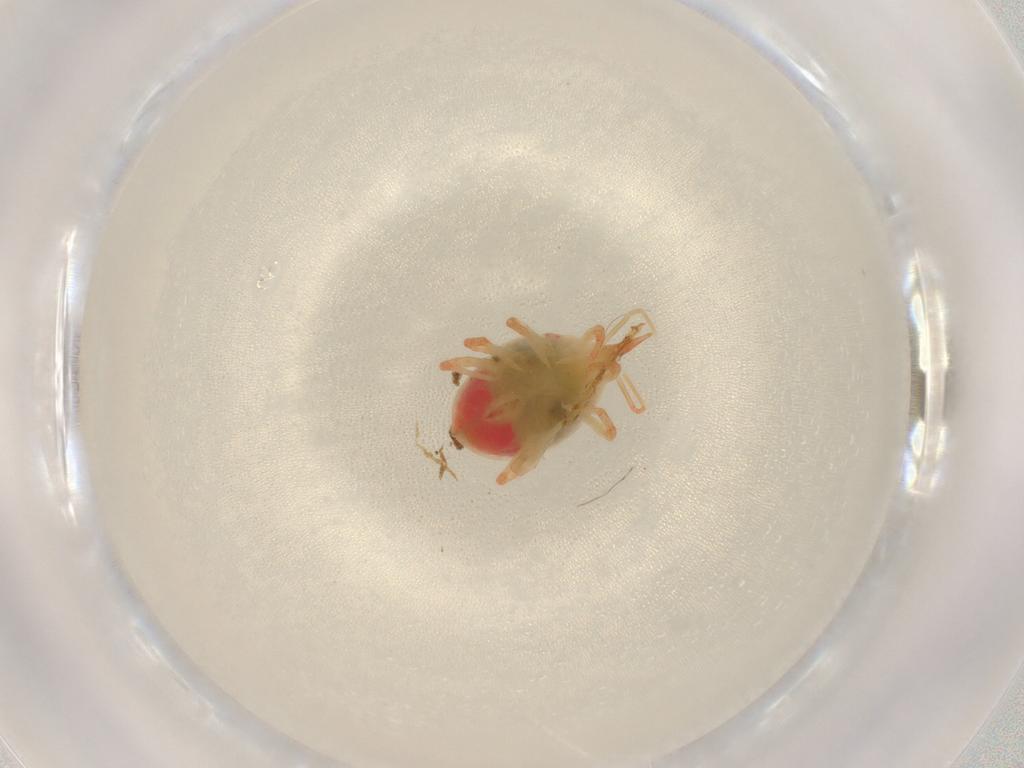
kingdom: Animalia
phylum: Arthropoda
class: Arachnida
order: Trombidiformes
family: Bdellidae
